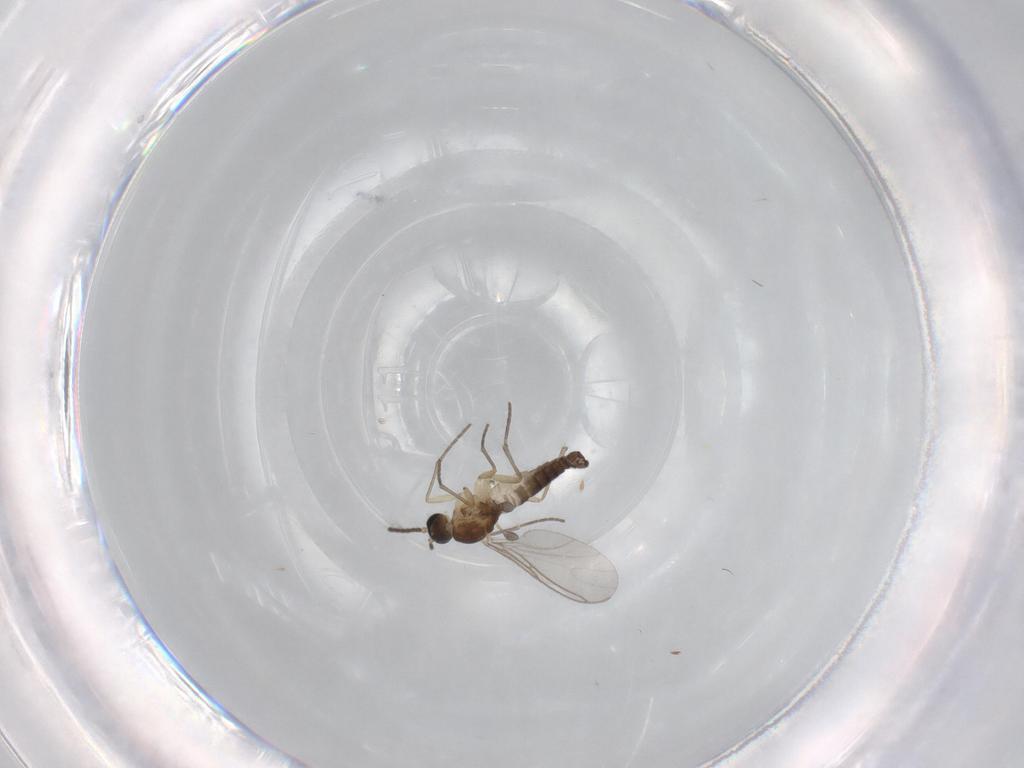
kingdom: Animalia
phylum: Arthropoda
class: Insecta
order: Diptera
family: Sciaridae
